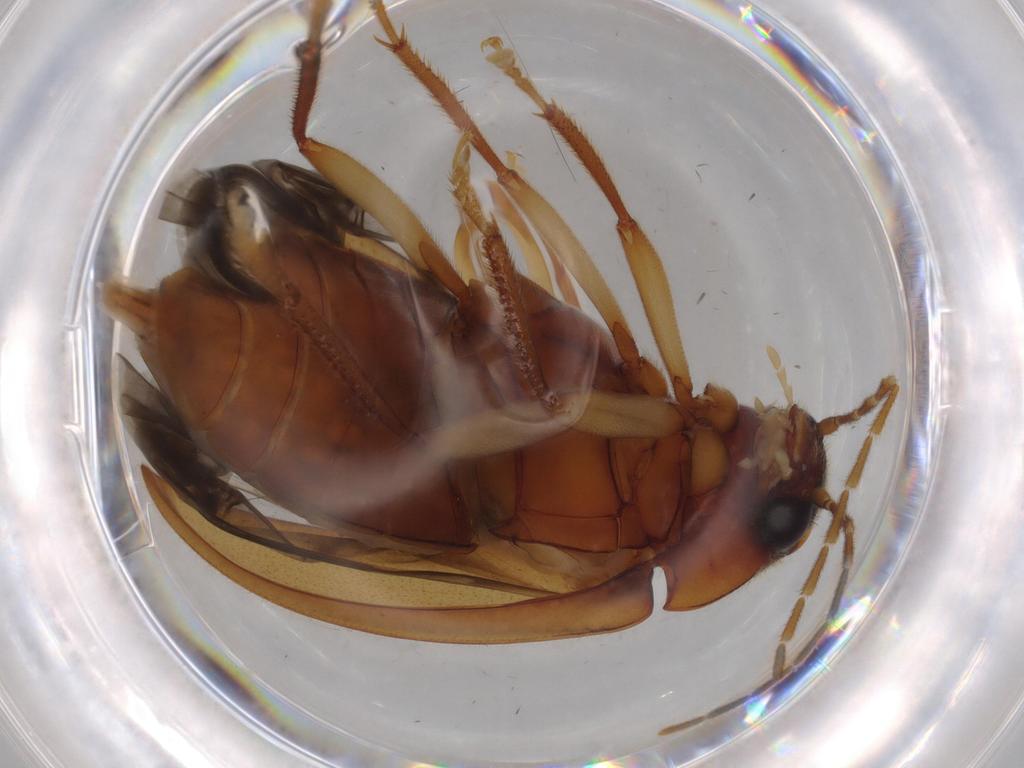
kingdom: Animalia
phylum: Arthropoda
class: Insecta
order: Coleoptera
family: Ptilodactylidae
